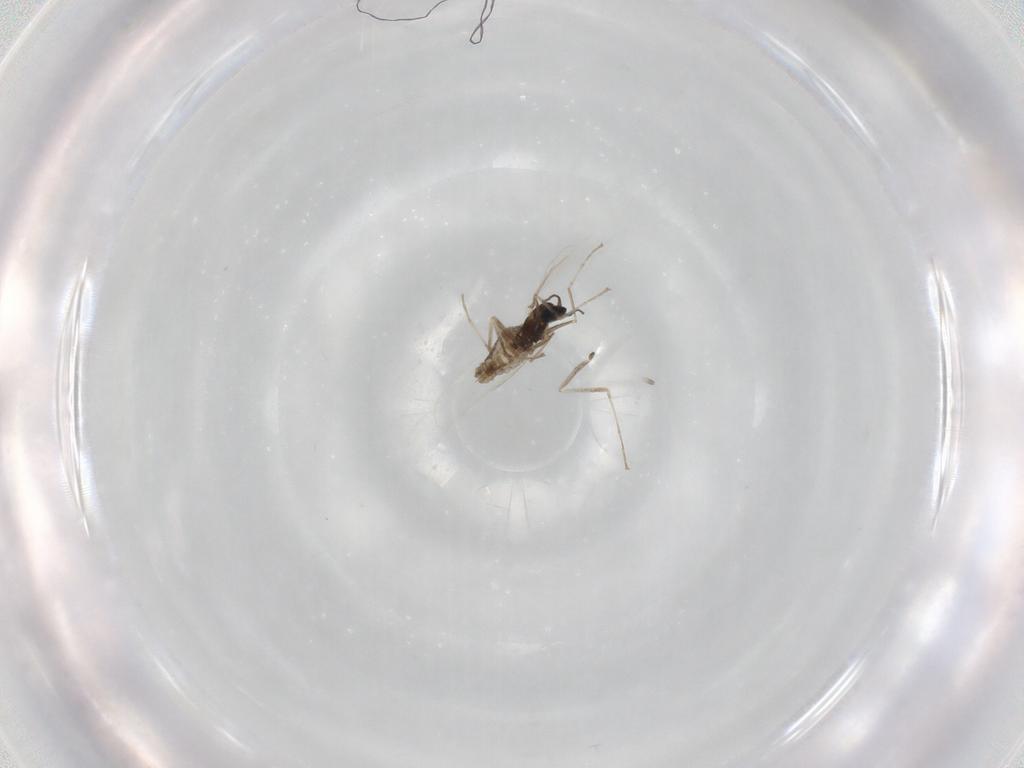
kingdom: Animalia
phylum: Arthropoda
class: Insecta
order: Diptera
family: Cecidomyiidae
